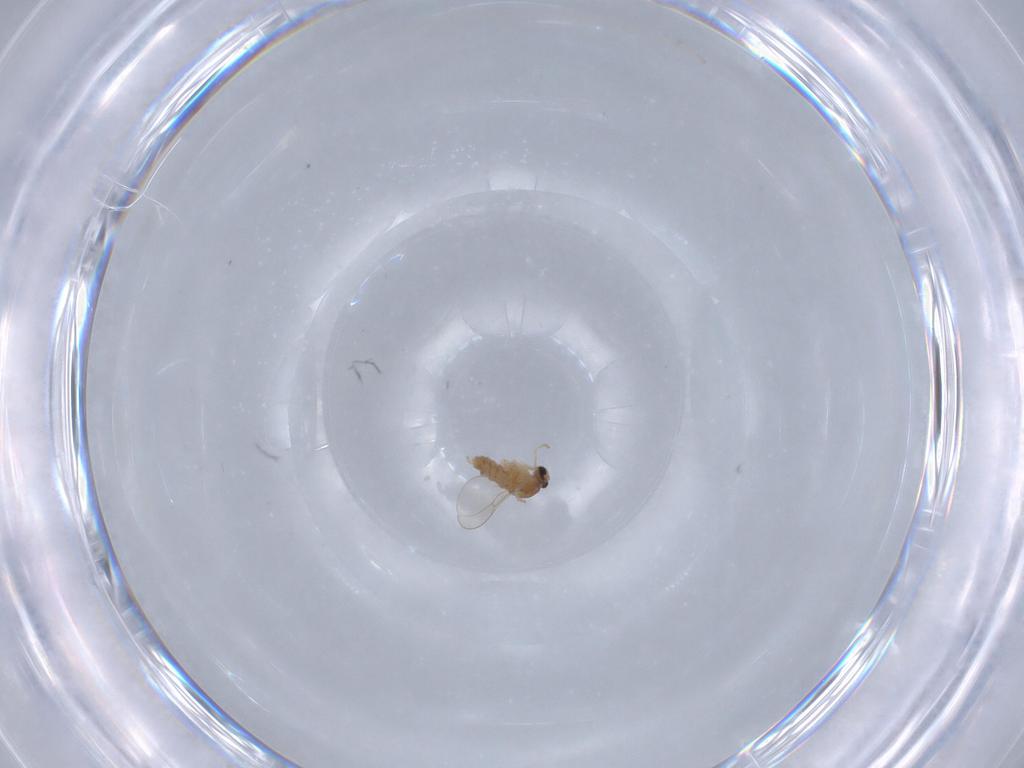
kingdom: Animalia
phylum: Arthropoda
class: Insecta
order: Diptera
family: Cecidomyiidae
